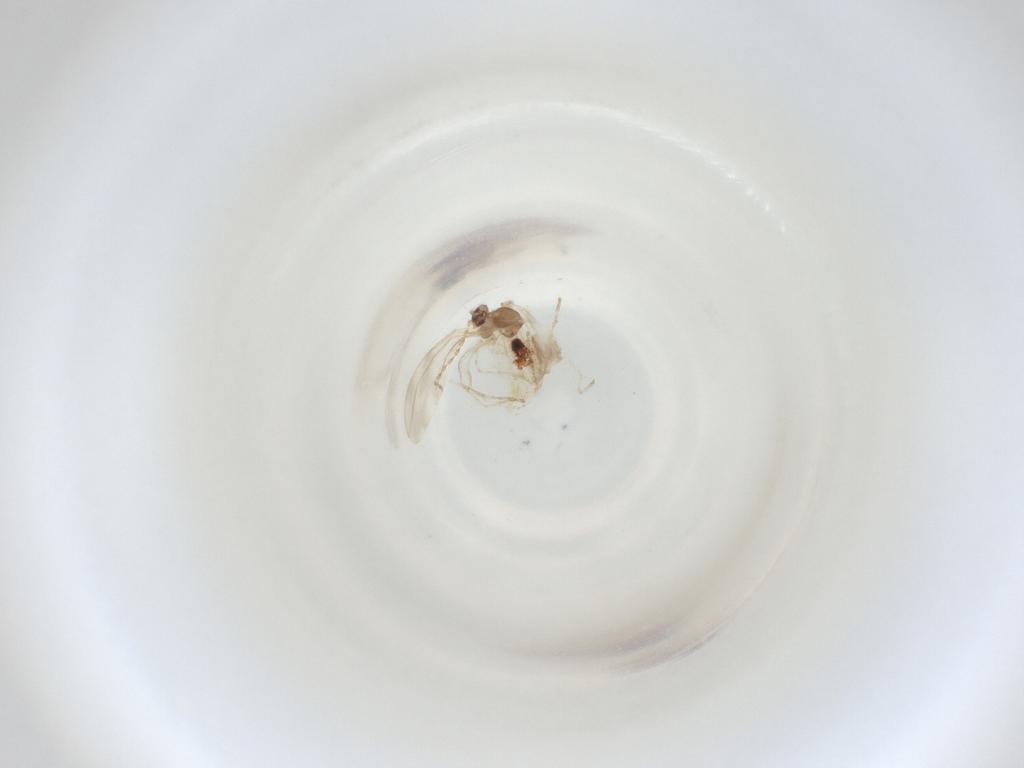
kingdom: Animalia
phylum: Arthropoda
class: Insecta
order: Diptera
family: Cecidomyiidae
